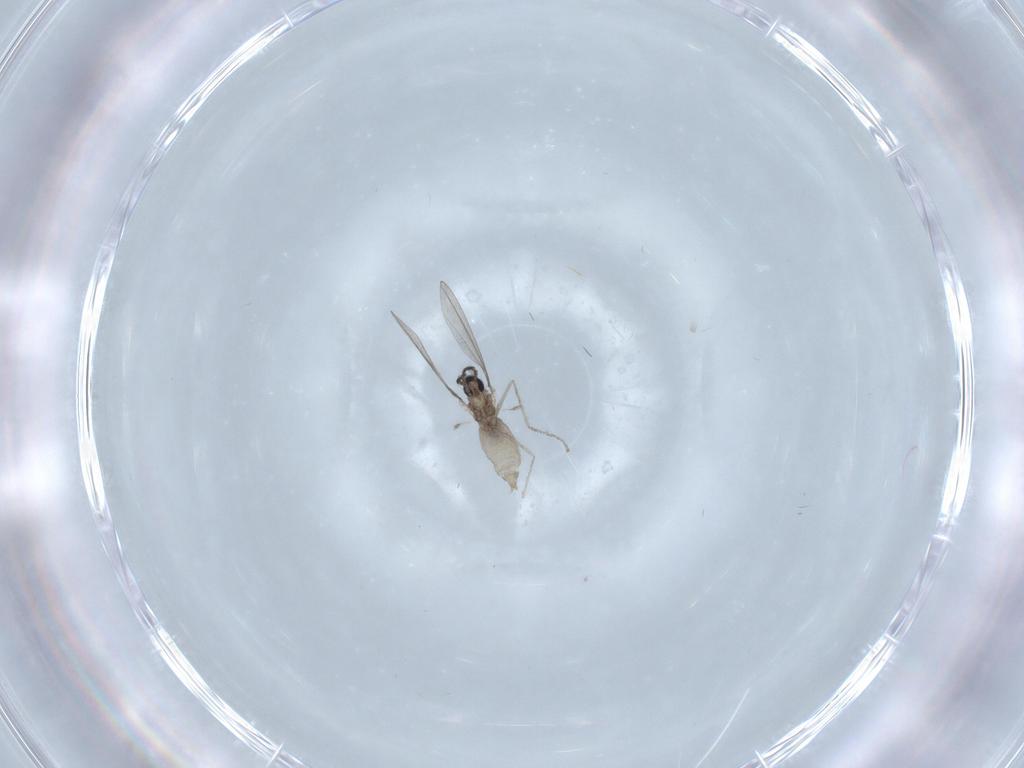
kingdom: Animalia
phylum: Arthropoda
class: Insecta
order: Diptera
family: Cecidomyiidae
